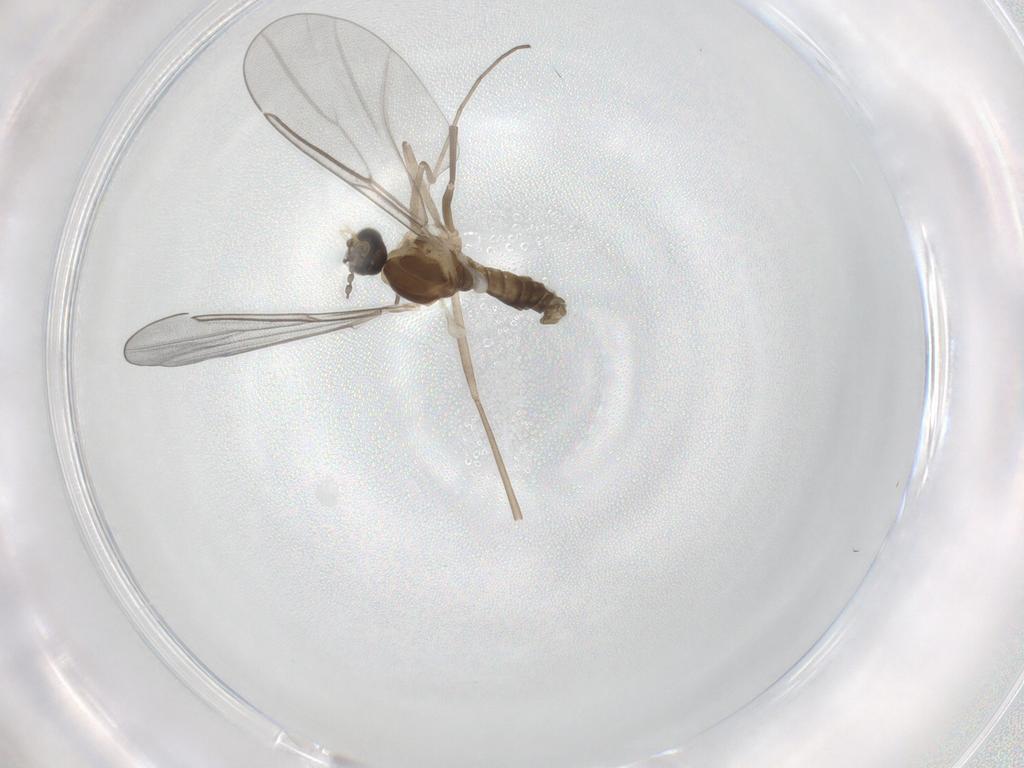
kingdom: Animalia
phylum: Arthropoda
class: Insecta
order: Diptera
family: Cecidomyiidae
